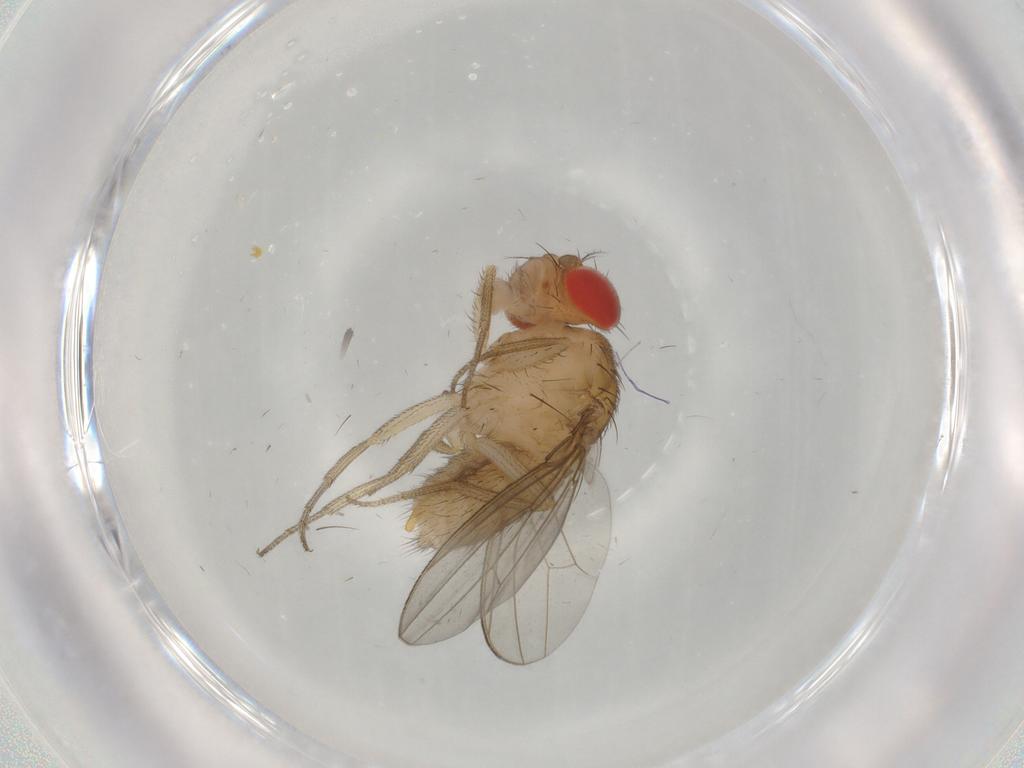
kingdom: Animalia
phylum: Arthropoda
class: Insecta
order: Diptera
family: Drosophilidae
